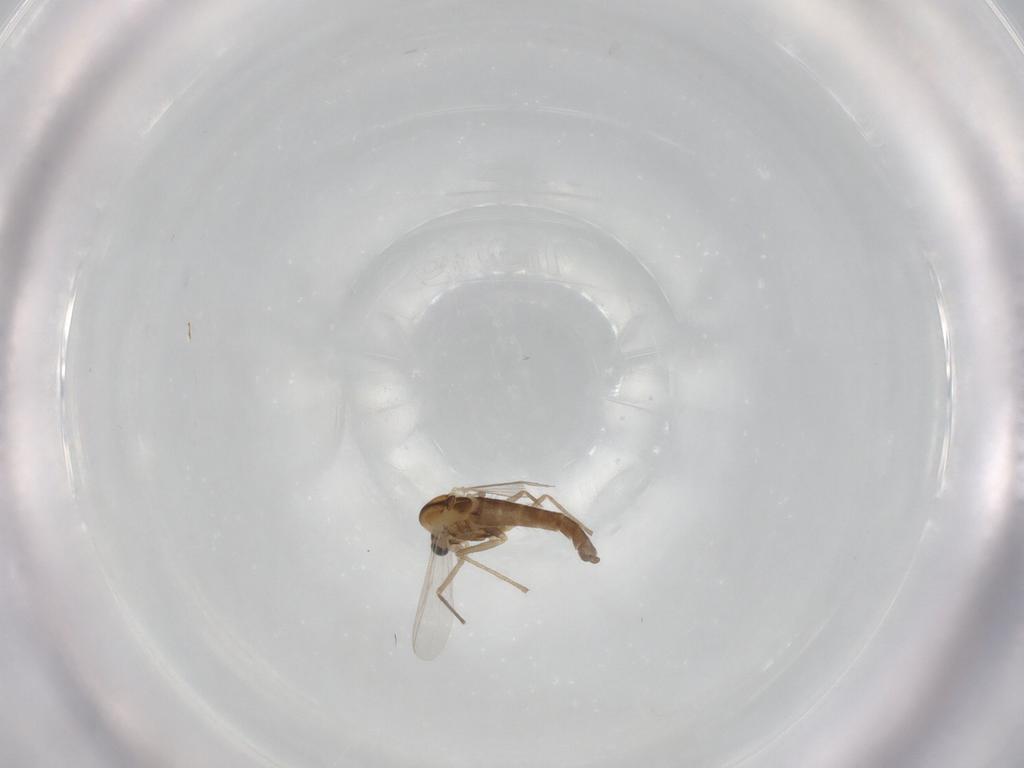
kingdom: Animalia
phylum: Arthropoda
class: Insecta
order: Diptera
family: Chironomidae
